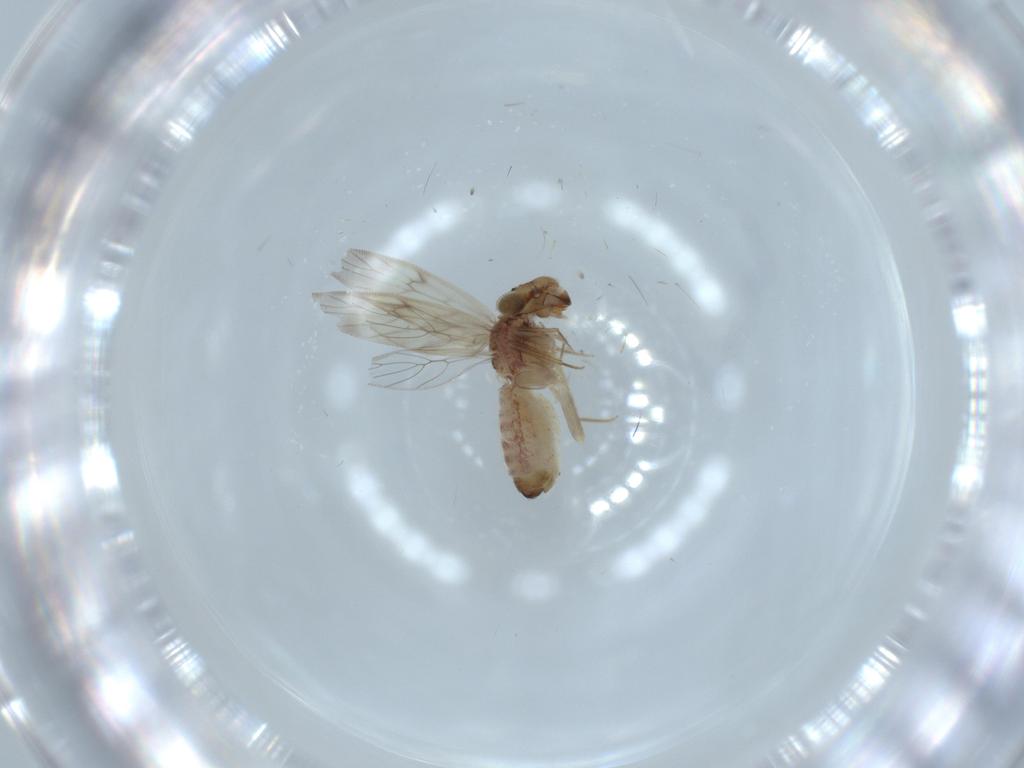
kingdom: Animalia
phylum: Arthropoda
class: Insecta
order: Psocodea
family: Lepidopsocidae
